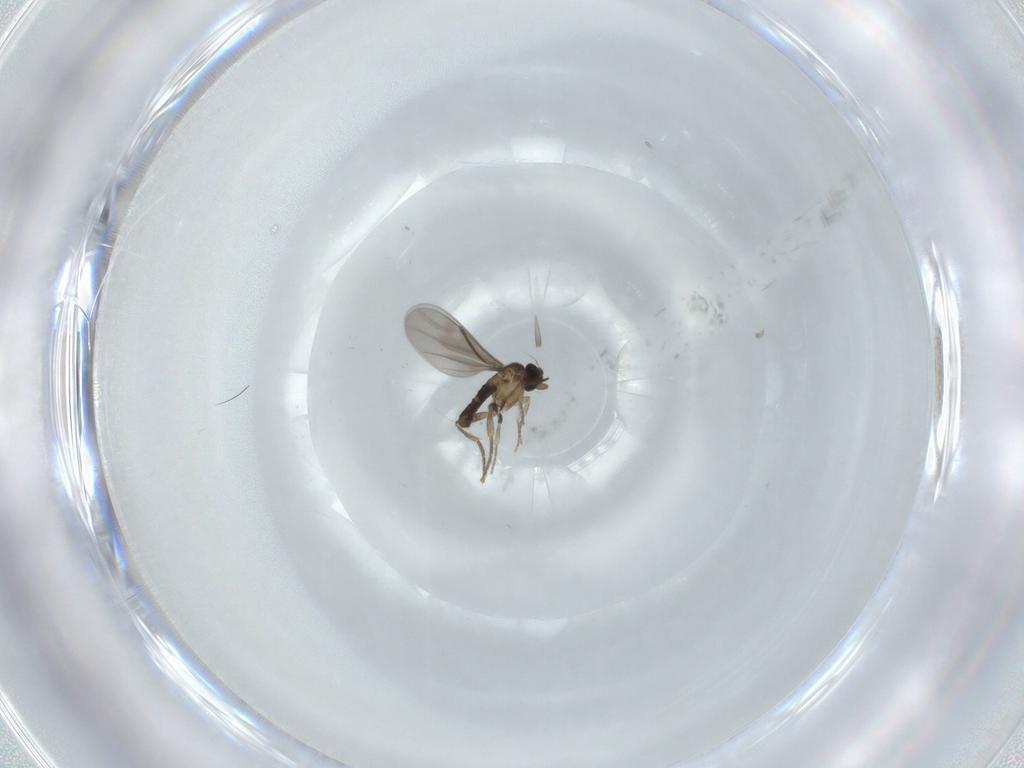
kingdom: Animalia
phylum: Arthropoda
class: Insecta
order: Diptera
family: Phoridae
